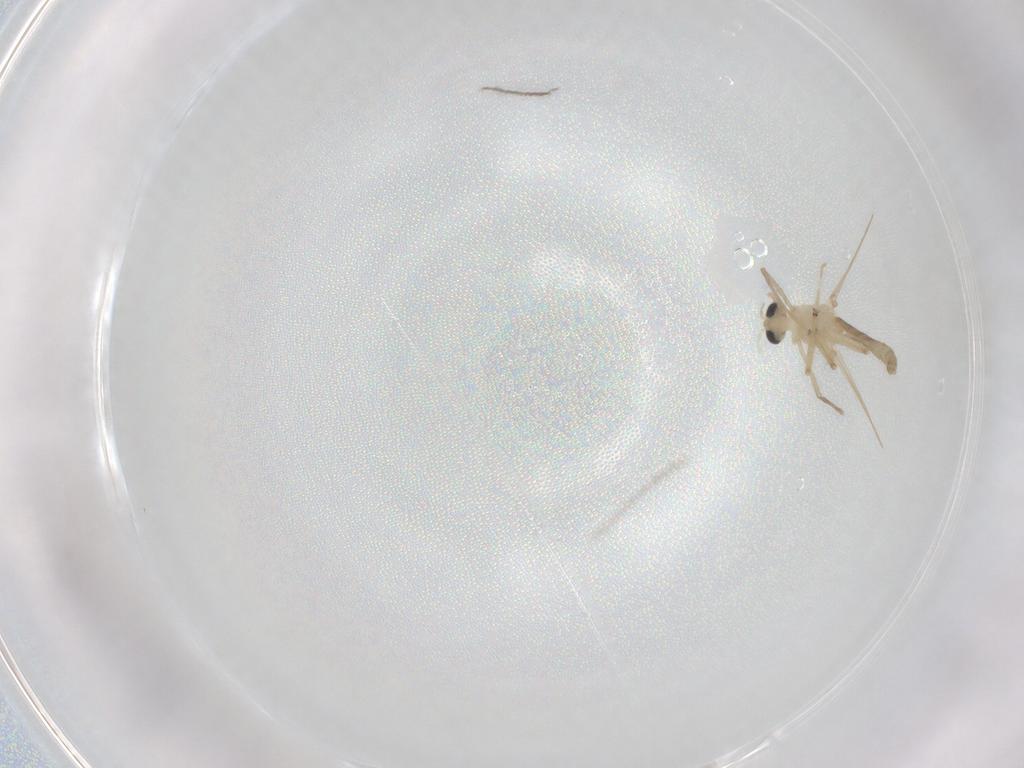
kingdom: Animalia
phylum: Arthropoda
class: Insecta
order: Diptera
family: Chironomidae
